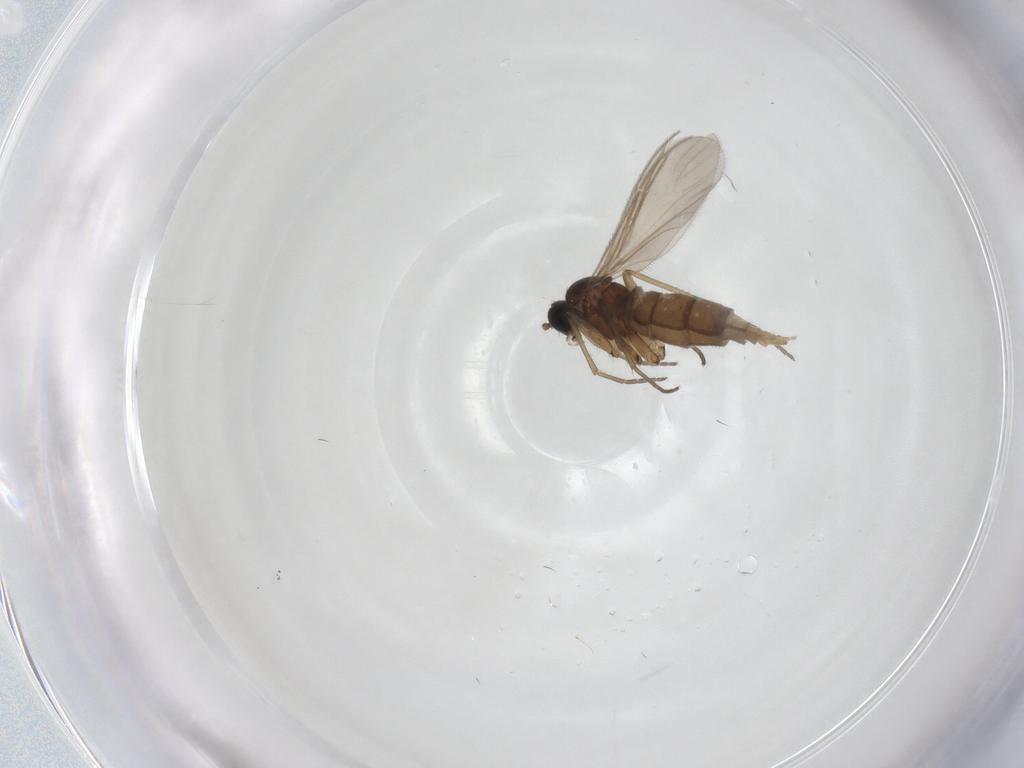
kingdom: Animalia
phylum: Arthropoda
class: Insecta
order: Diptera
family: Sciaridae
